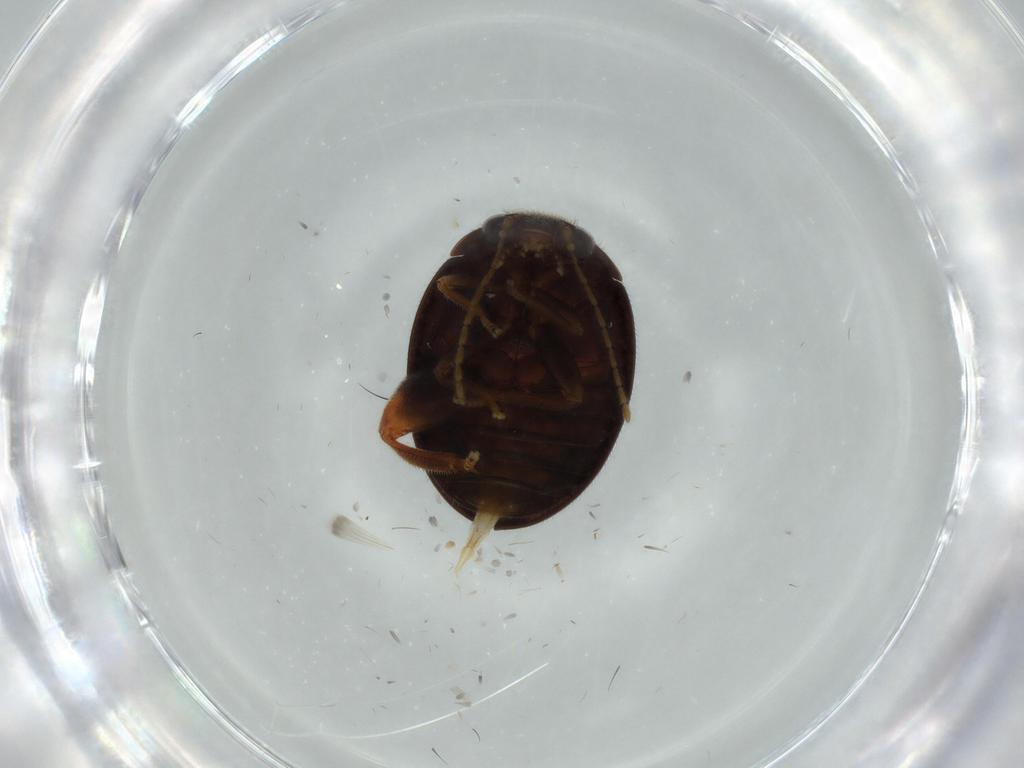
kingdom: Animalia
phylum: Arthropoda
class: Insecta
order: Coleoptera
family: Scirtidae
